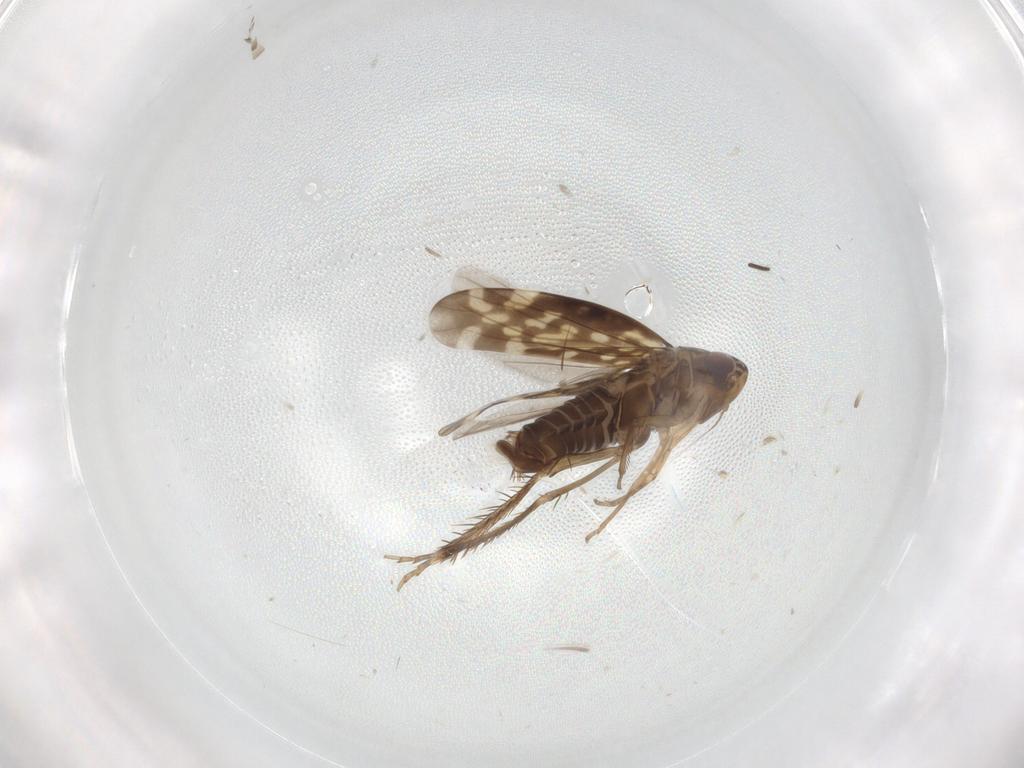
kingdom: Animalia
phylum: Arthropoda
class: Insecta
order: Hemiptera
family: Cicadellidae
